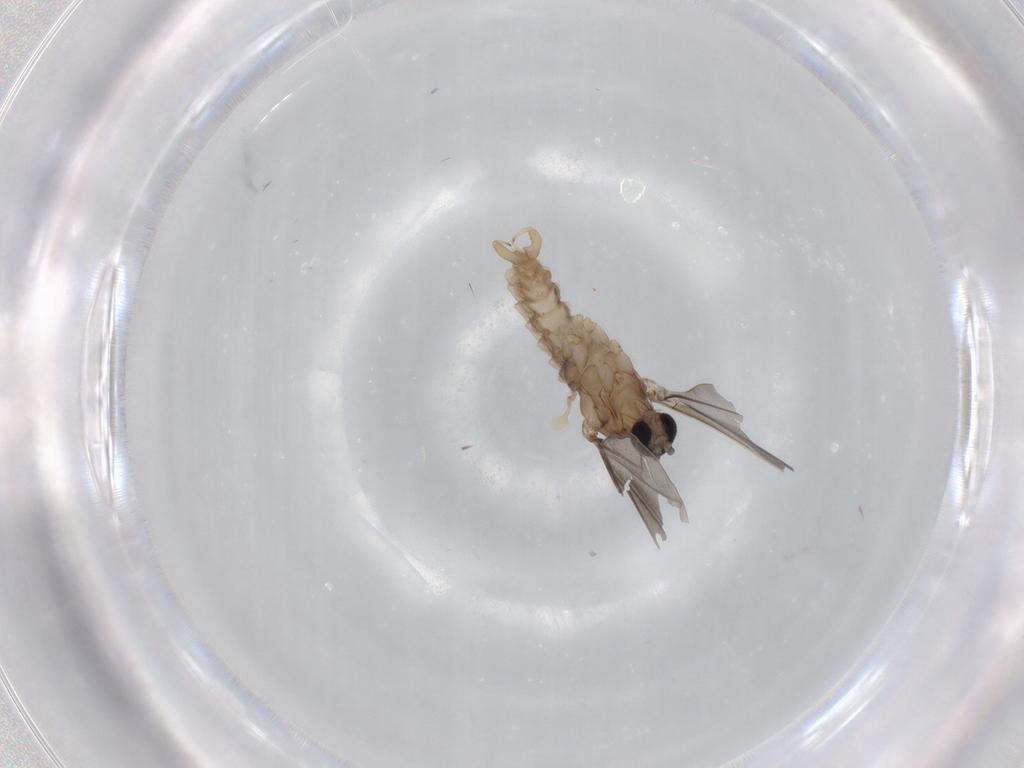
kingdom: Animalia
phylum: Arthropoda
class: Insecta
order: Diptera
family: Cecidomyiidae
